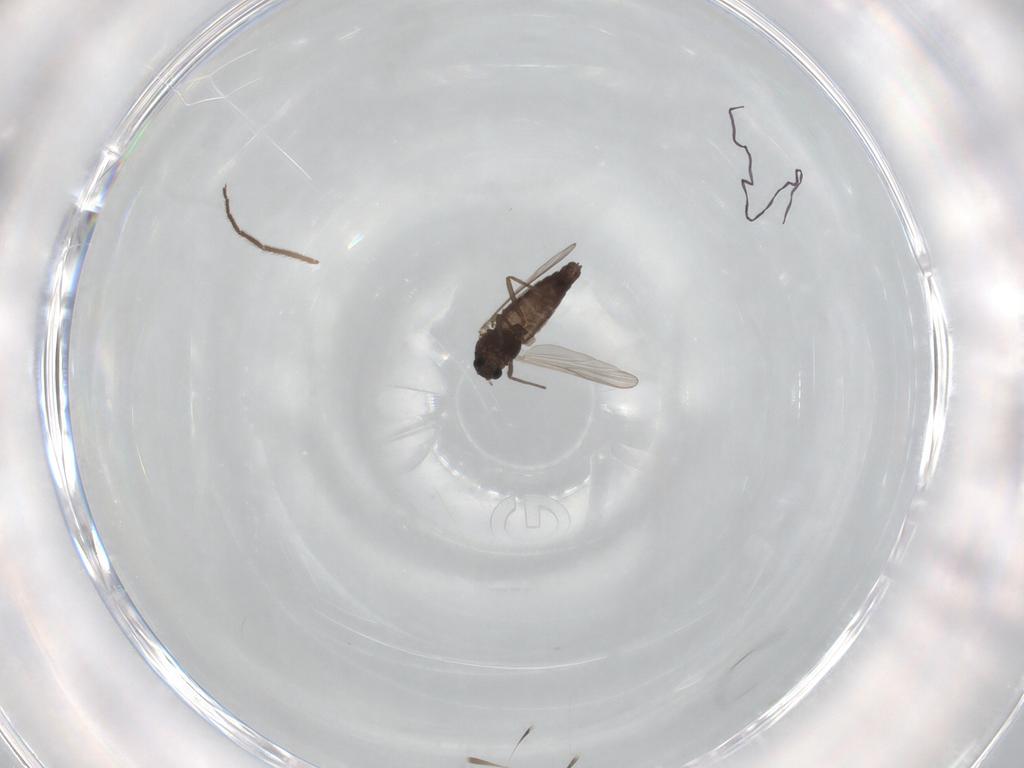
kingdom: Animalia
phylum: Arthropoda
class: Insecta
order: Diptera
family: Chironomidae
